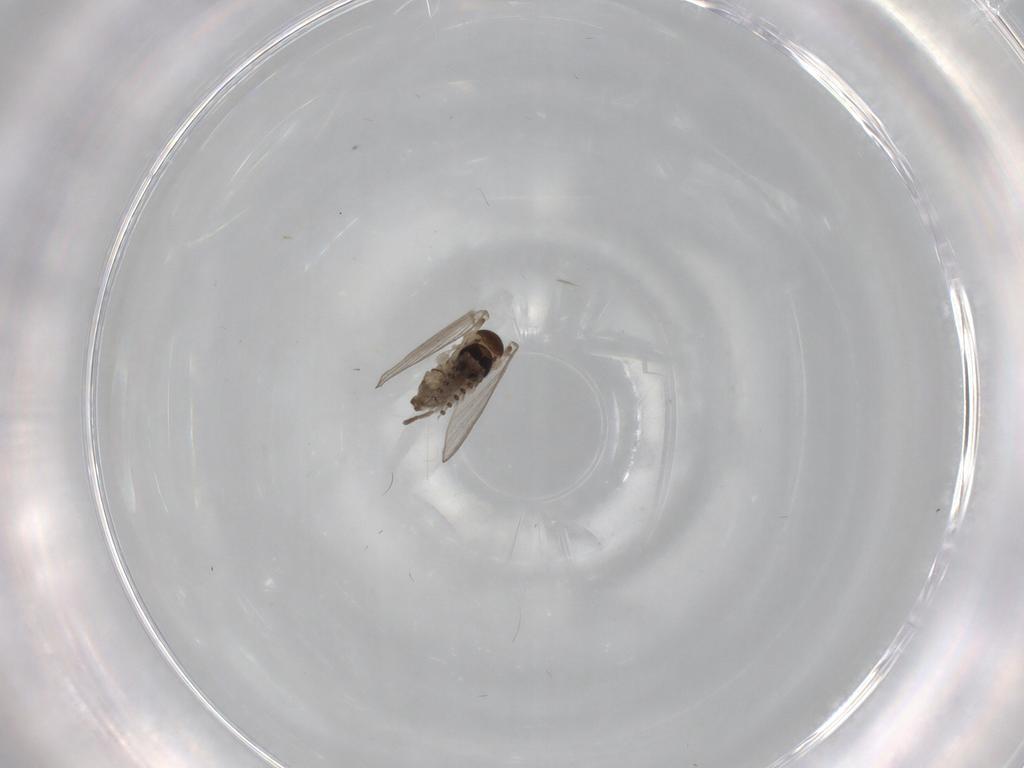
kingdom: Animalia
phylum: Arthropoda
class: Insecta
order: Diptera
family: Psychodidae
